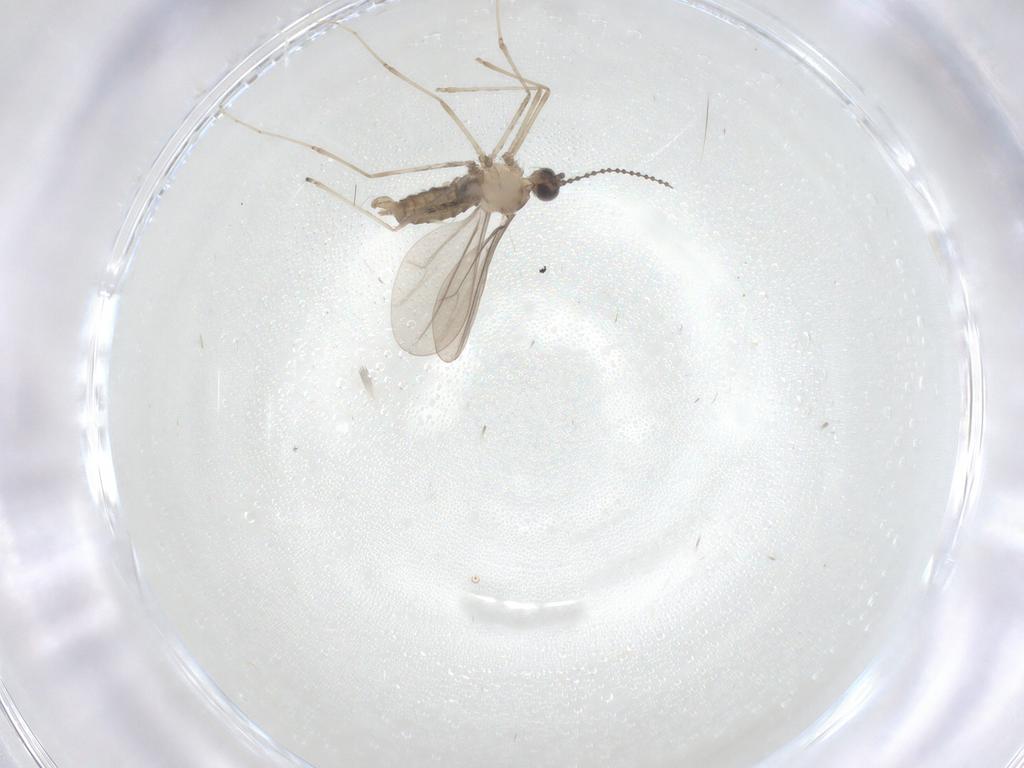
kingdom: Animalia
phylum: Arthropoda
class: Insecta
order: Diptera
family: Cecidomyiidae
